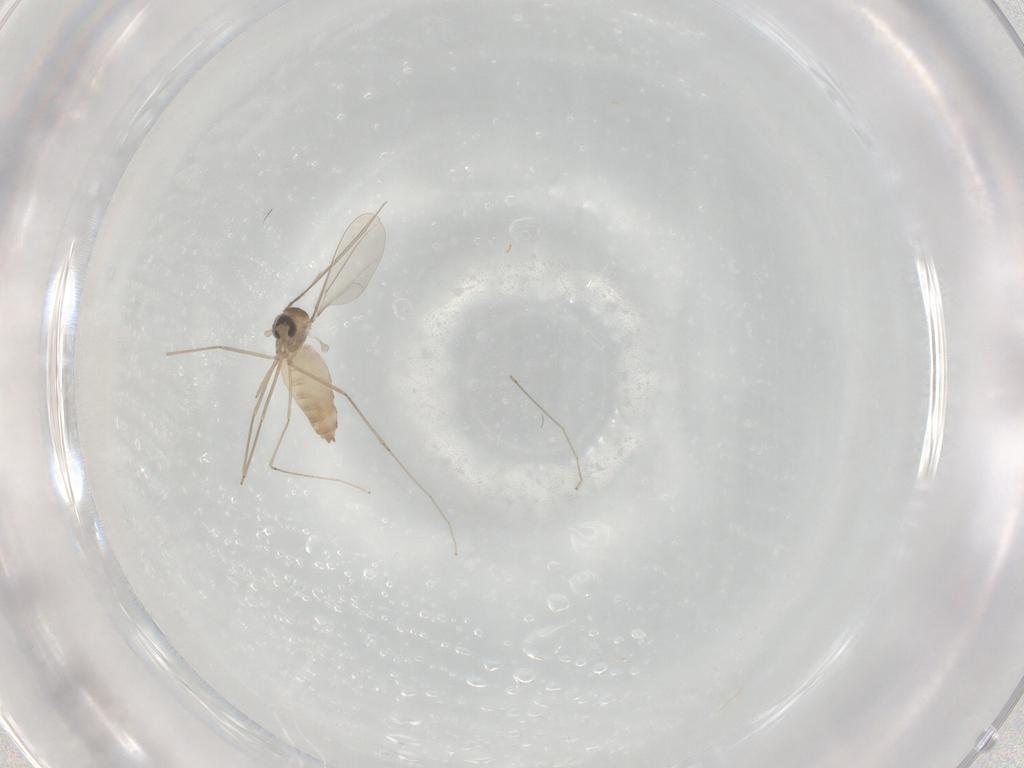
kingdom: Animalia
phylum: Arthropoda
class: Insecta
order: Diptera
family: Cecidomyiidae
